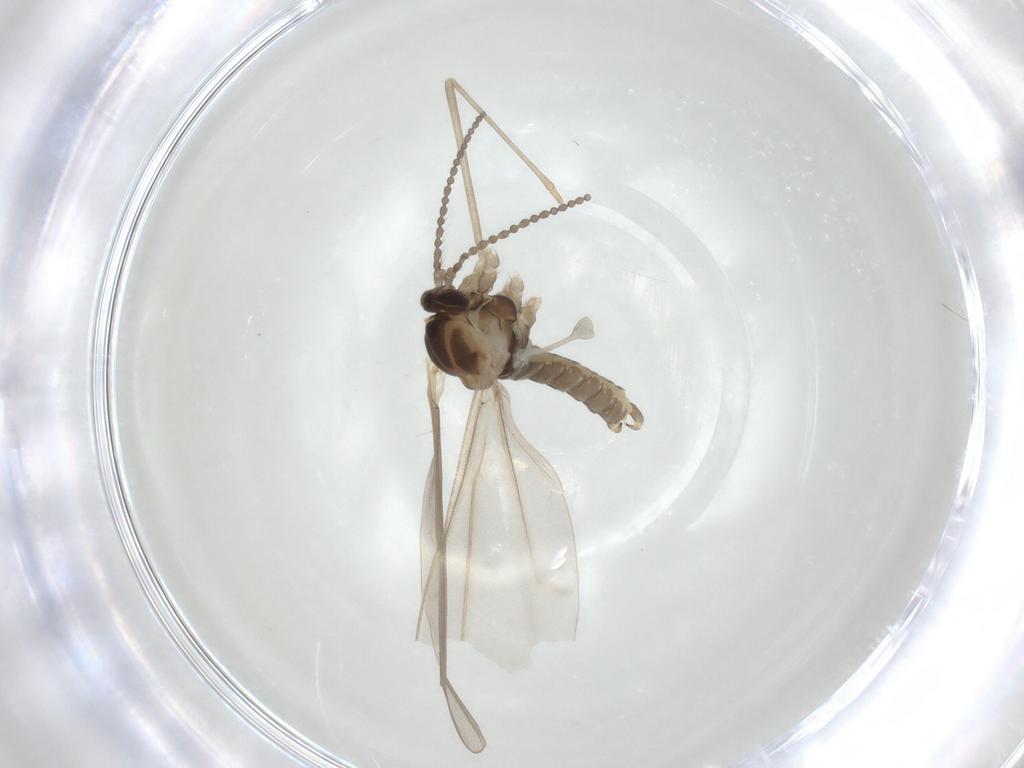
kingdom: Animalia
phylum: Arthropoda
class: Insecta
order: Diptera
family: Cecidomyiidae
